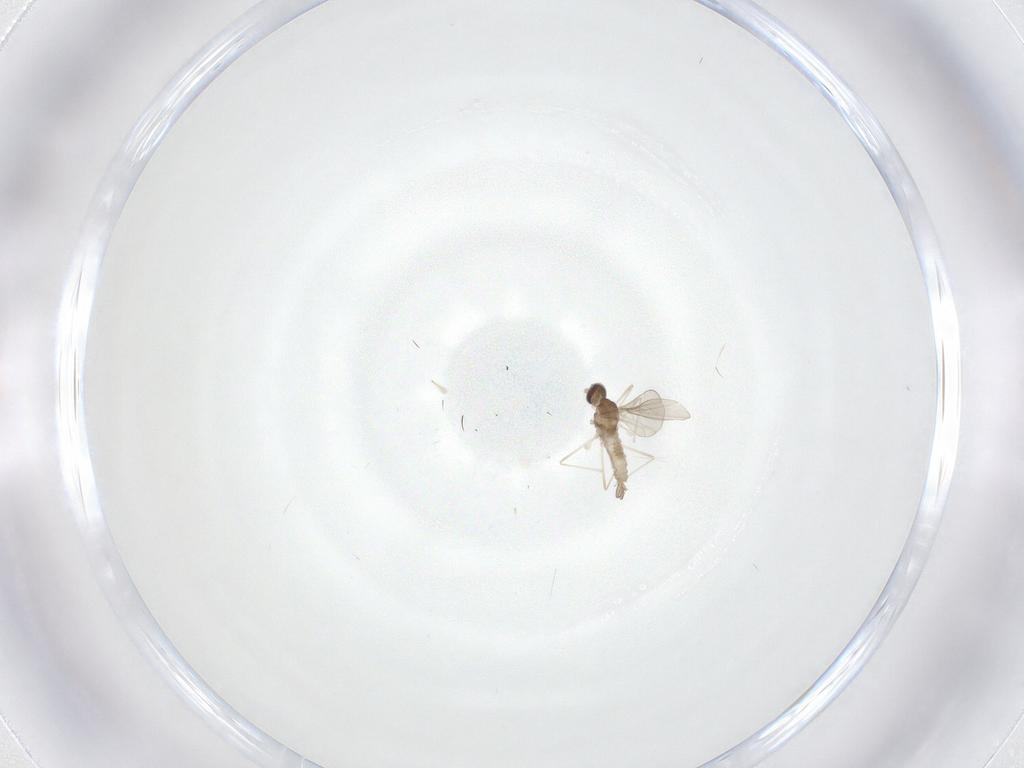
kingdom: Animalia
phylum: Arthropoda
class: Insecta
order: Diptera
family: Cecidomyiidae
